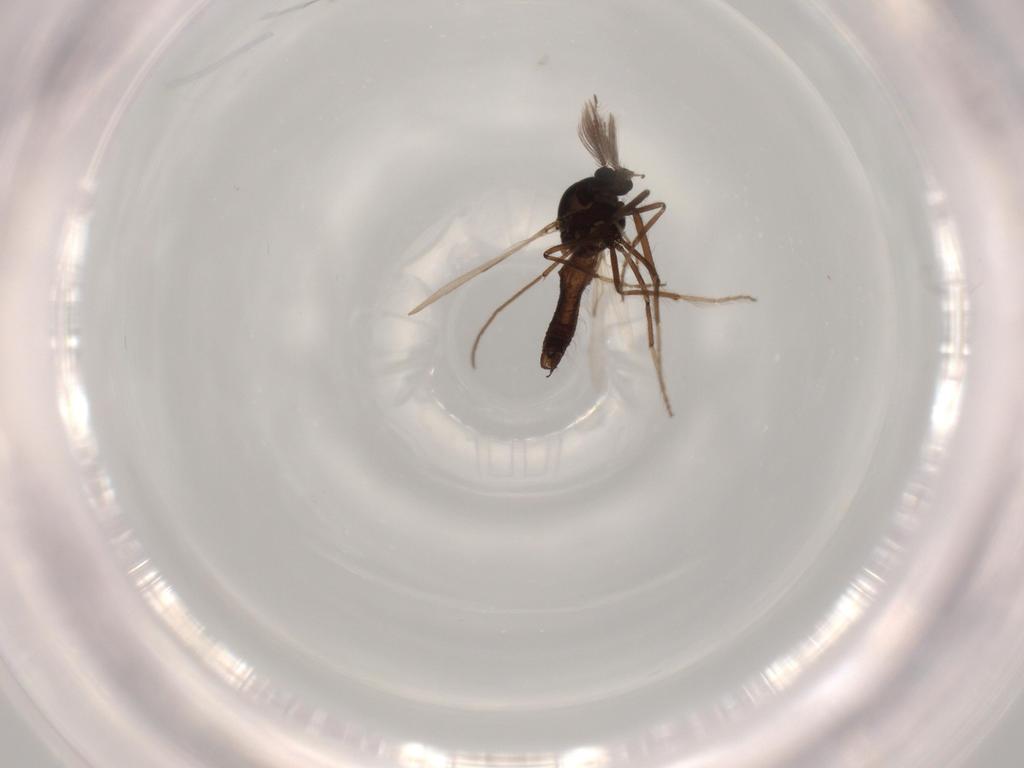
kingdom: Animalia
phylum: Arthropoda
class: Insecta
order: Diptera
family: Chironomidae
